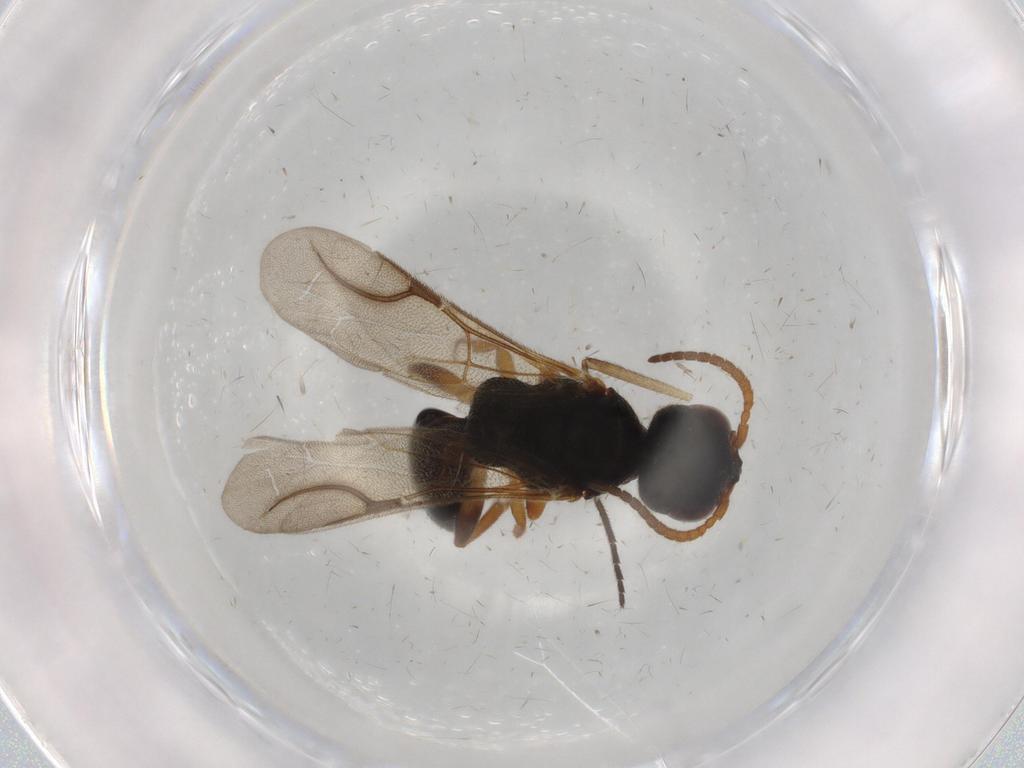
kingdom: Animalia
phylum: Arthropoda
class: Insecta
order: Hymenoptera
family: Bethylidae
